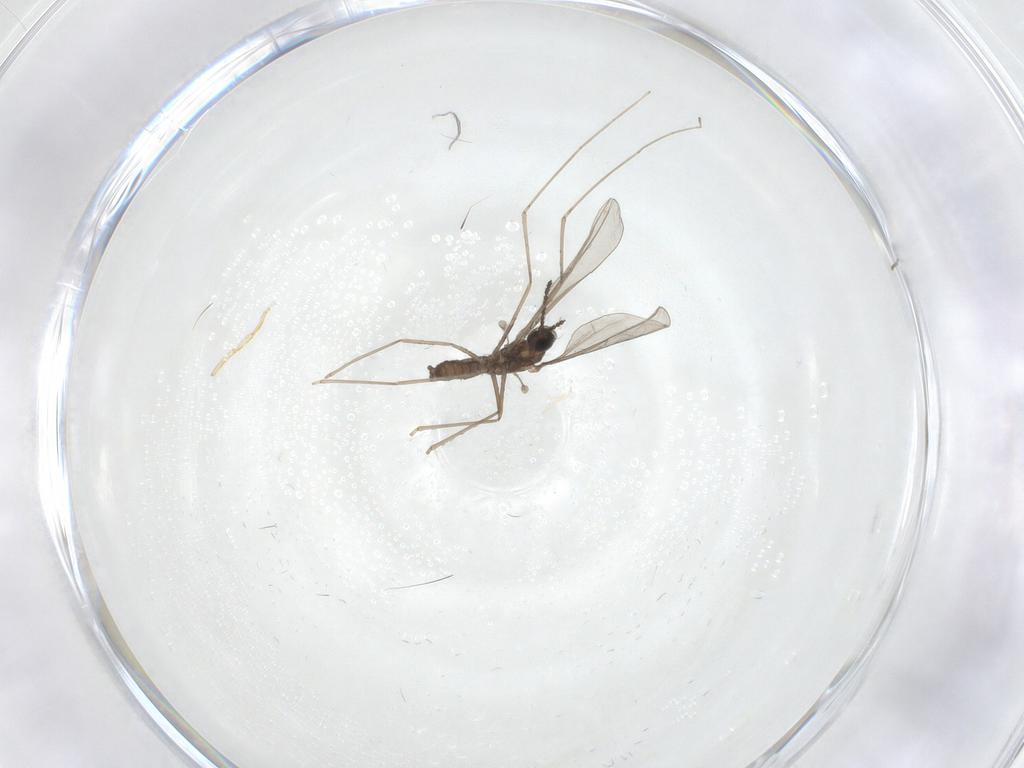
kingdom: Animalia
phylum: Arthropoda
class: Insecta
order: Diptera
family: Chironomidae
